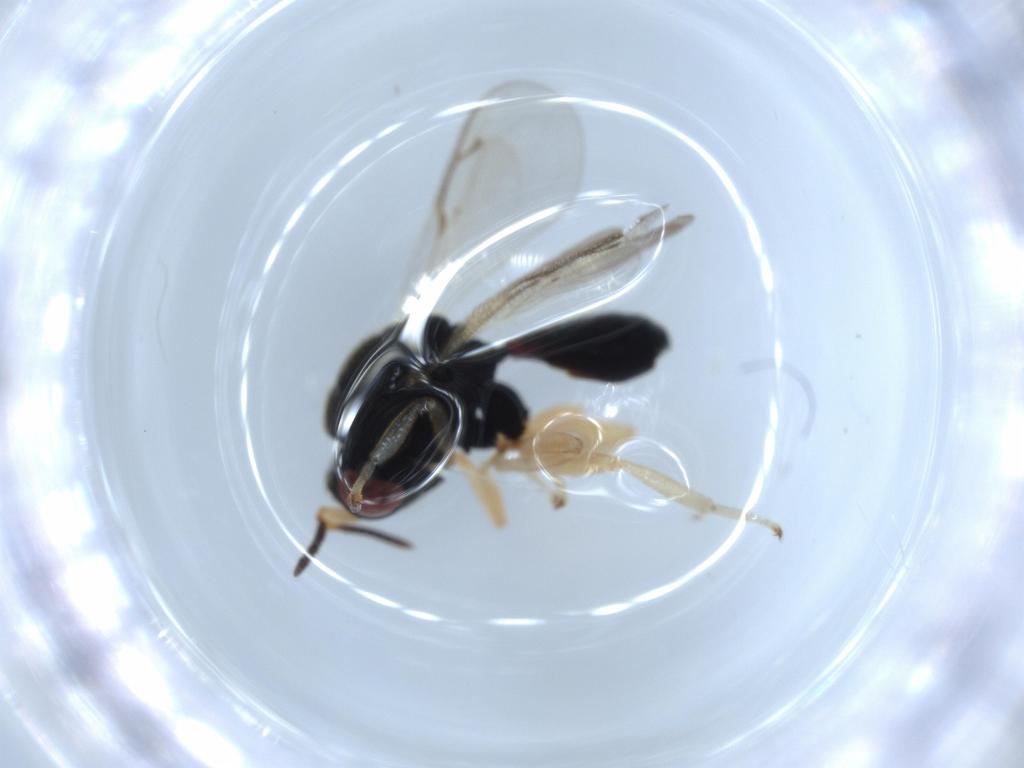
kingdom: Animalia
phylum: Arthropoda
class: Insecta
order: Hymenoptera
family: Eurytomidae
